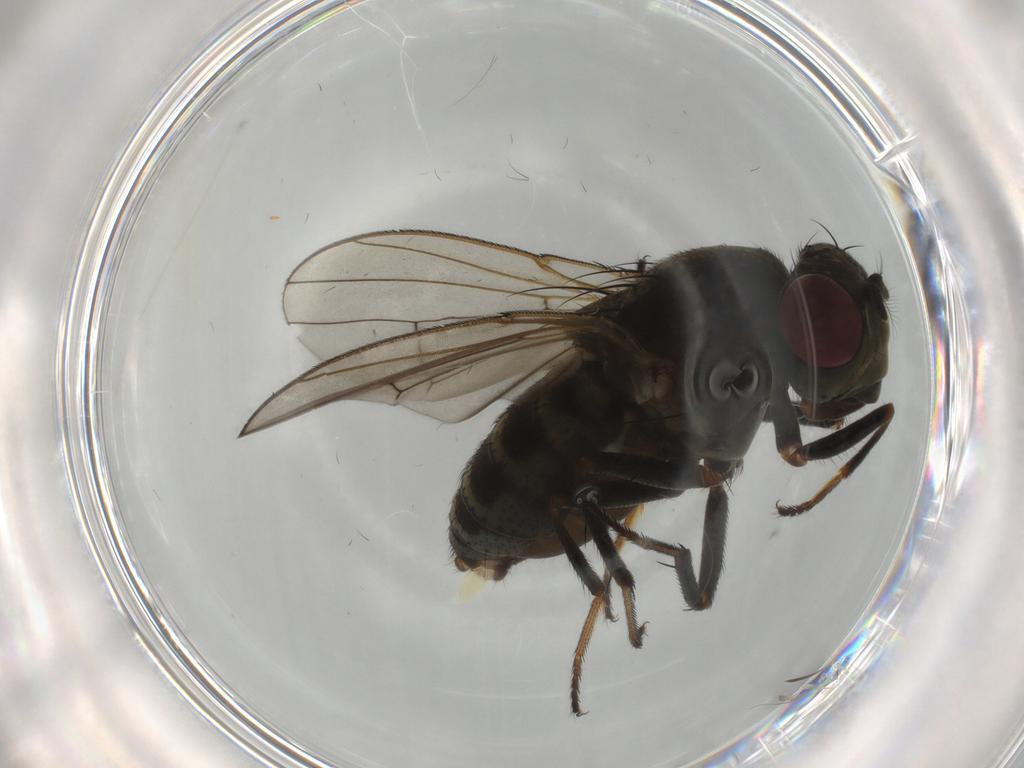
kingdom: Animalia
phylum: Arthropoda
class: Insecta
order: Diptera
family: Ephydridae
